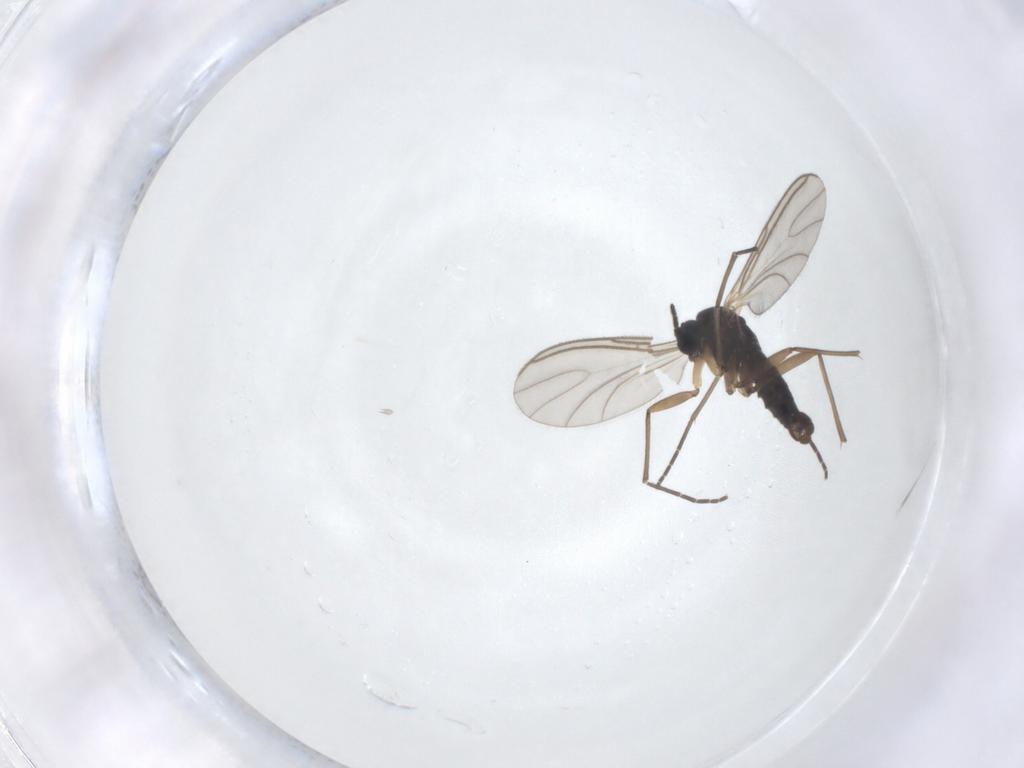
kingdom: Animalia
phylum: Arthropoda
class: Insecta
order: Diptera
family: Sciaridae
